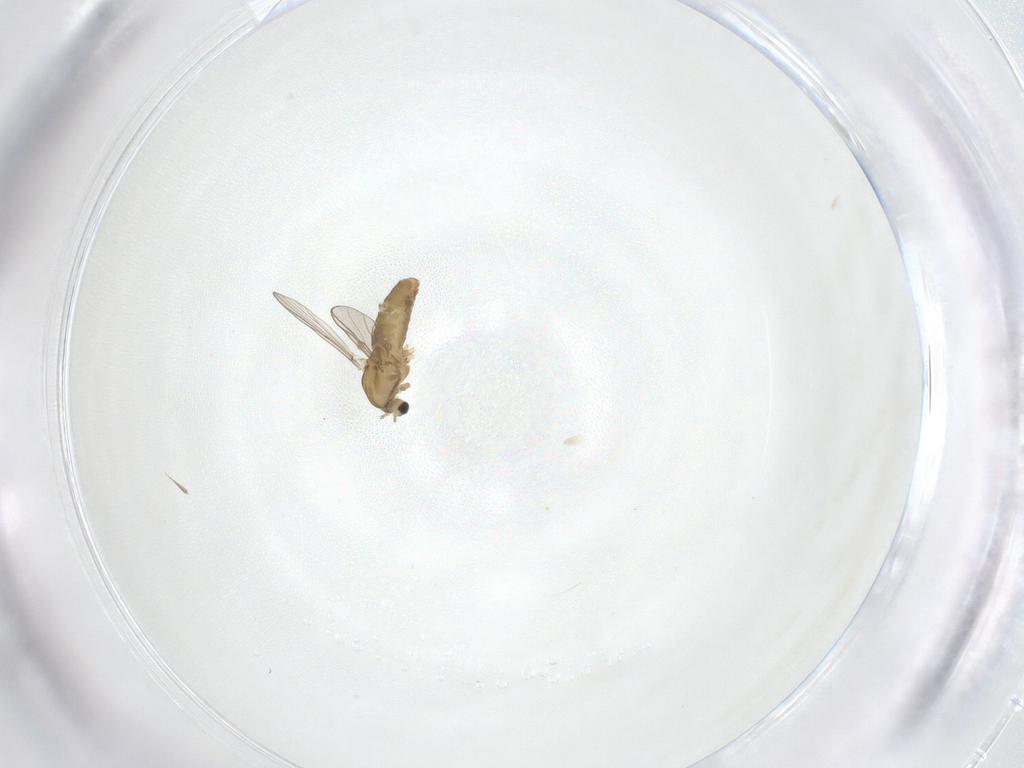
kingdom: Animalia
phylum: Arthropoda
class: Insecta
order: Diptera
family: Chironomidae
